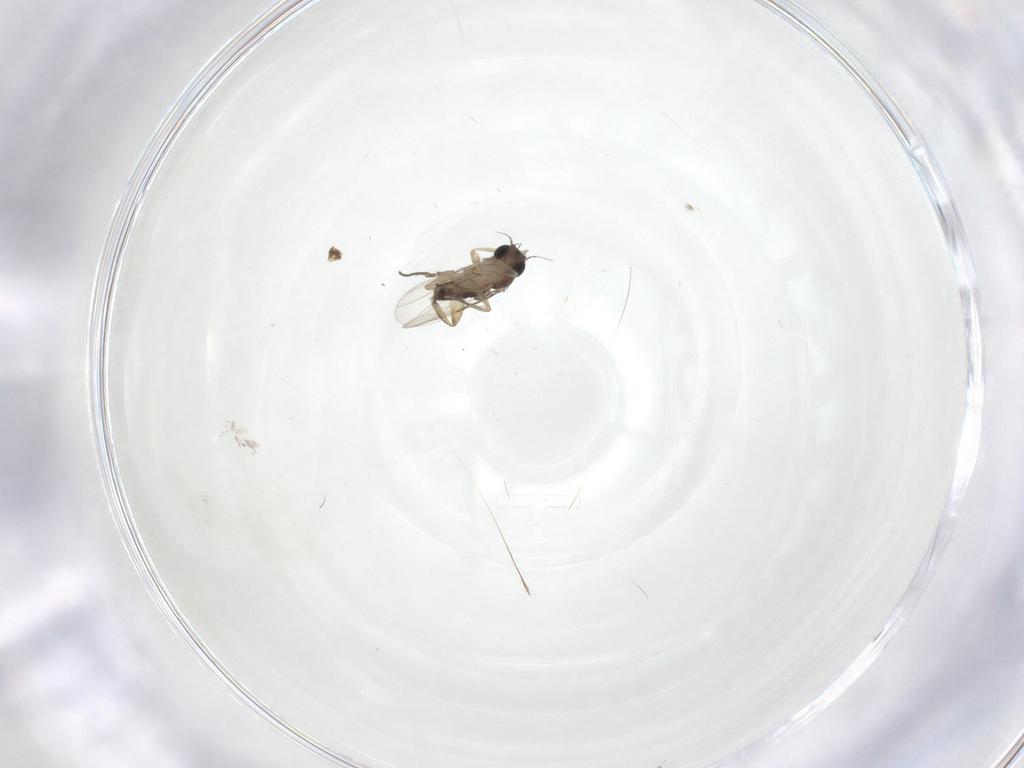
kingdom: Animalia
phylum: Arthropoda
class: Insecta
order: Diptera
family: Phoridae
